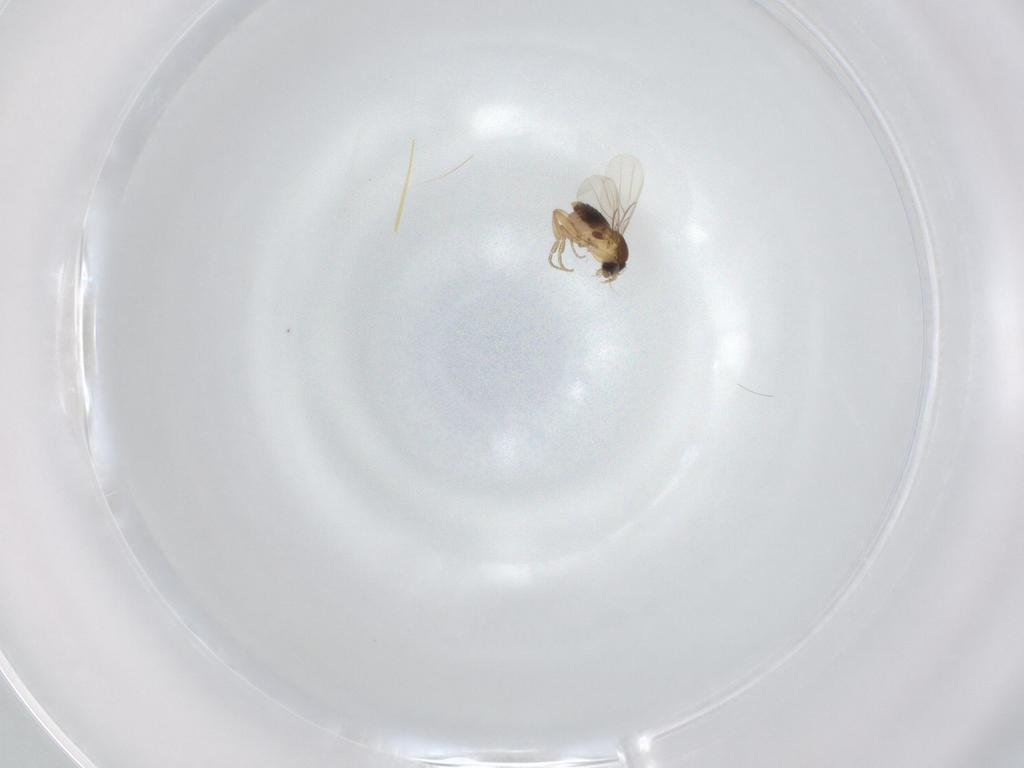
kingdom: Animalia
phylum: Arthropoda
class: Insecta
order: Diptera
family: Phoridae
